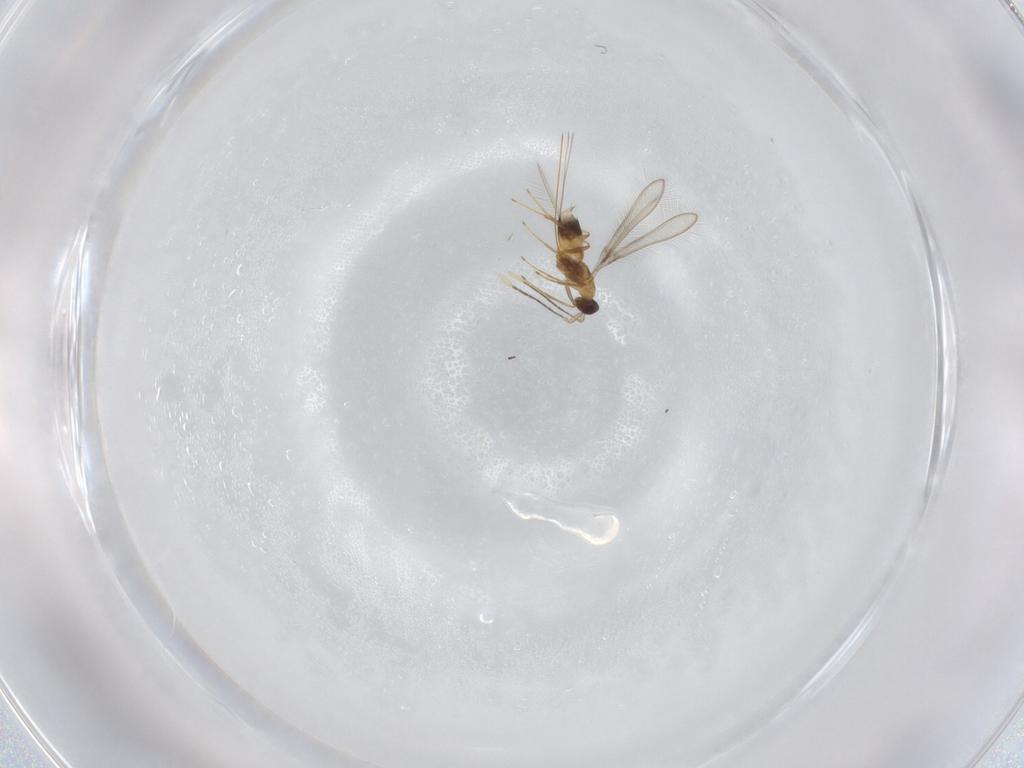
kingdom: Animalia
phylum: Arthropoda
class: Insecta
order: Hymenoptera
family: Mymaridae
